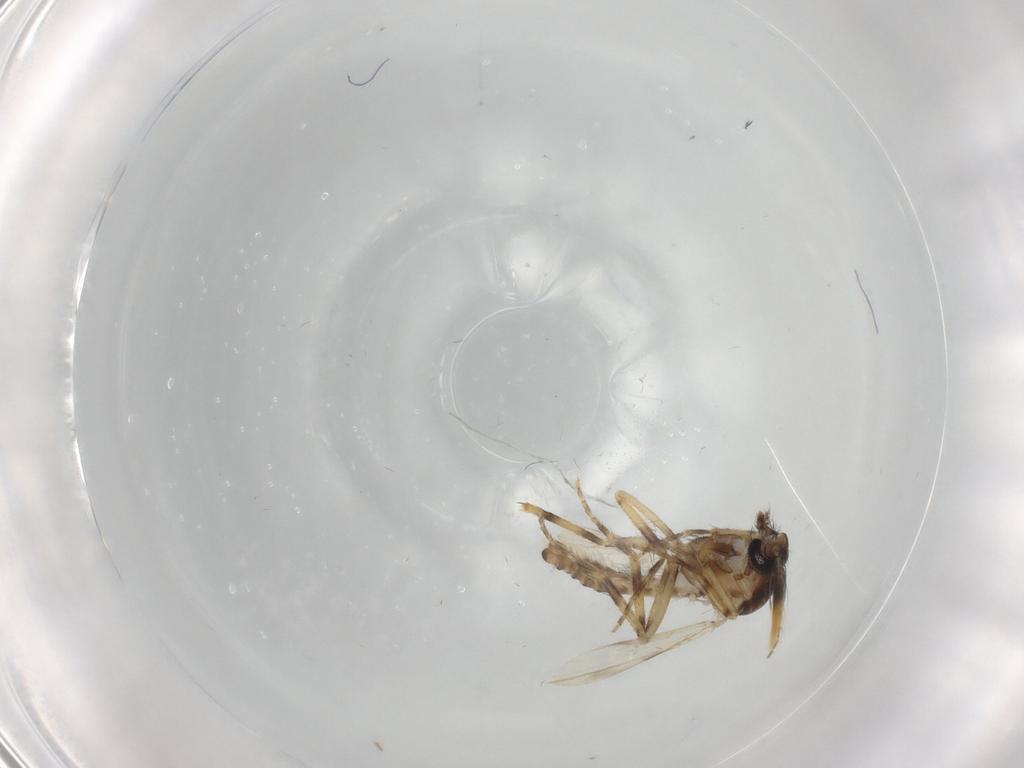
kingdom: Animalia
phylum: Arthropoda
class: Insecta
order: Diptera
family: Ceratopogonidae
